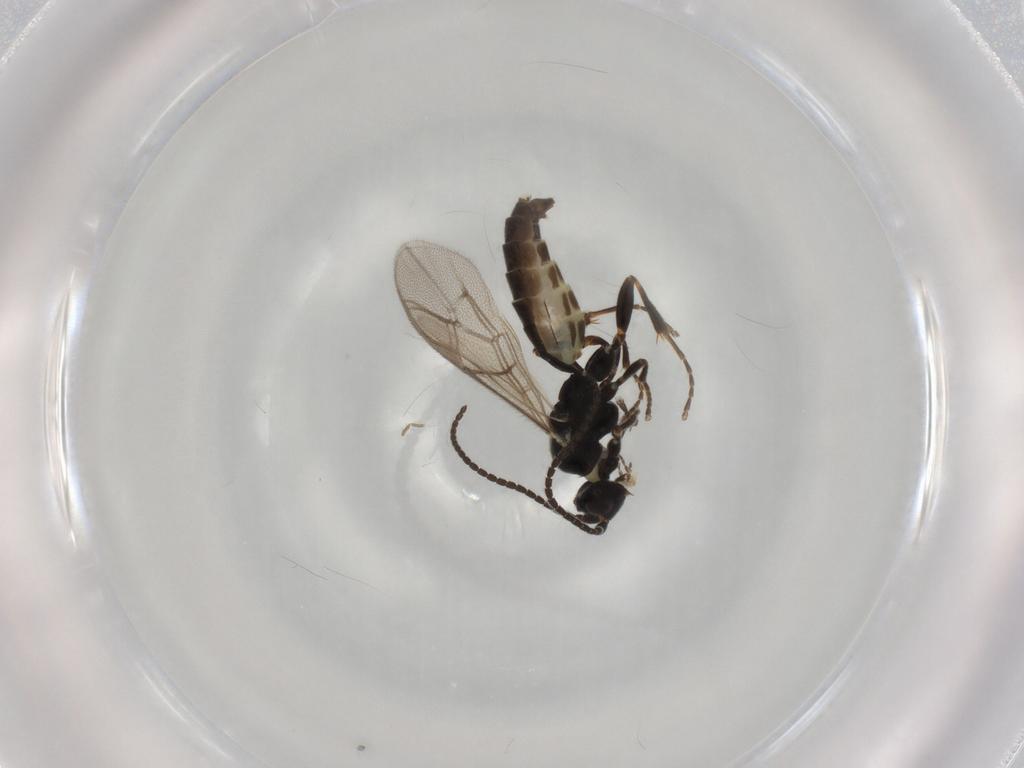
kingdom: Animalia
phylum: Arthropoda
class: Insecta
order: Hymenoptera
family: Ichneumonidae
